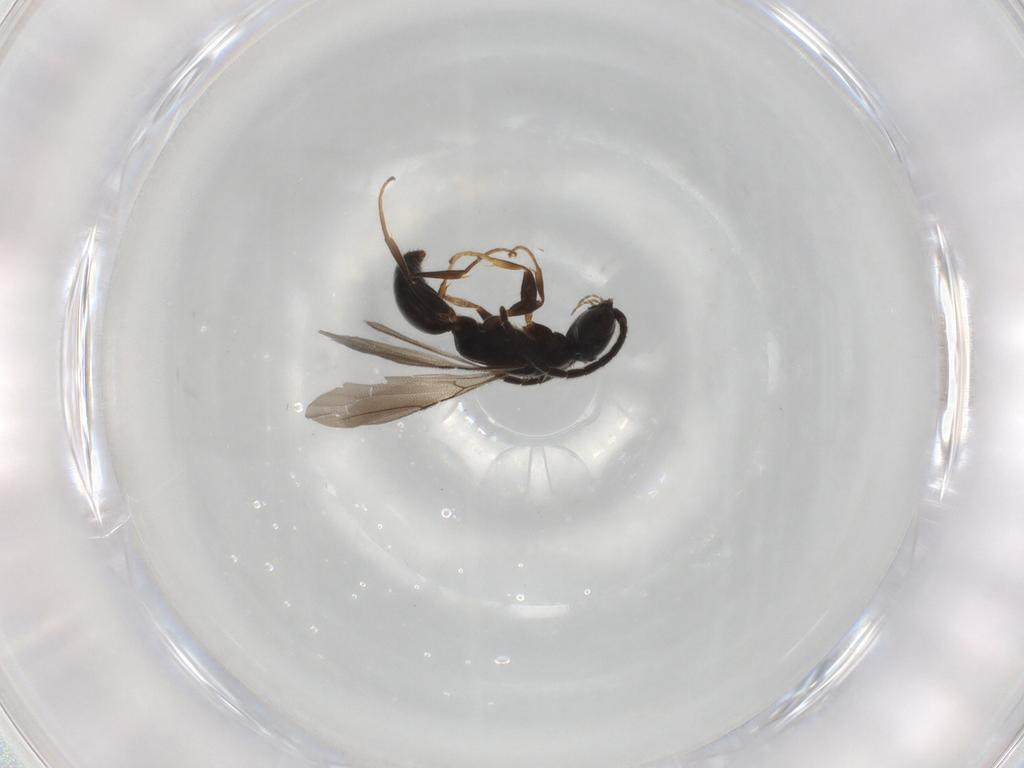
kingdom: Animalia
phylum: Arthropoda
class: Insecta
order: Hymenoptera
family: Bethylidae
